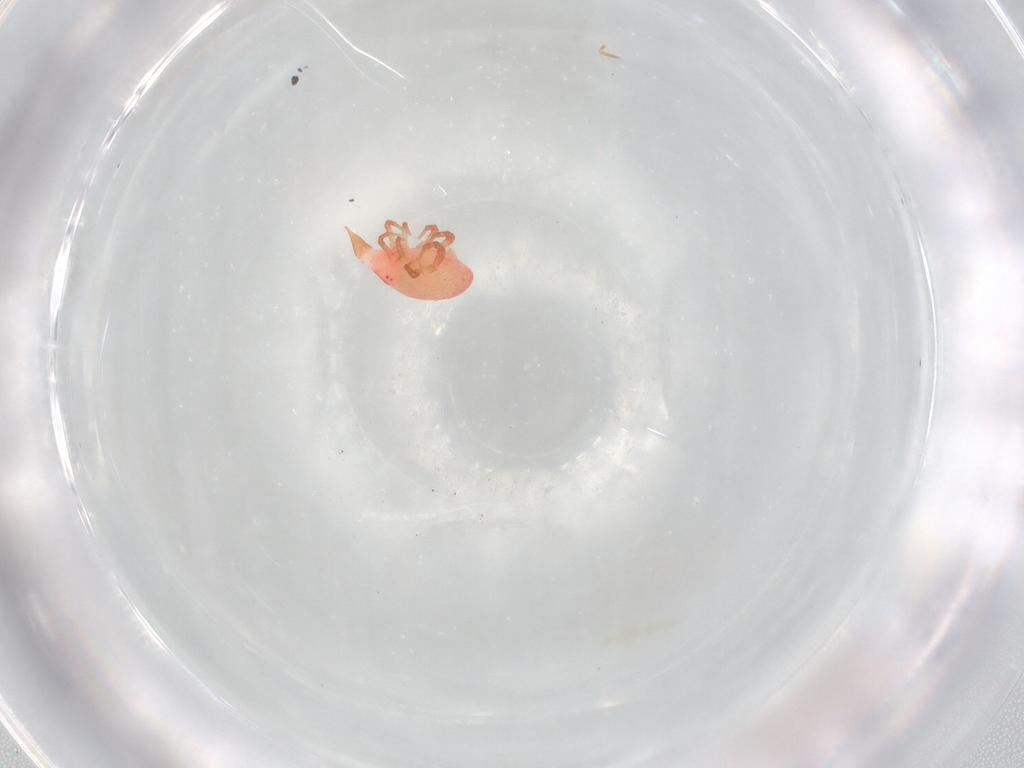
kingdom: Animalia
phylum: Arthropoda
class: Arachnida
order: Trombidiformes
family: Bdellidae
